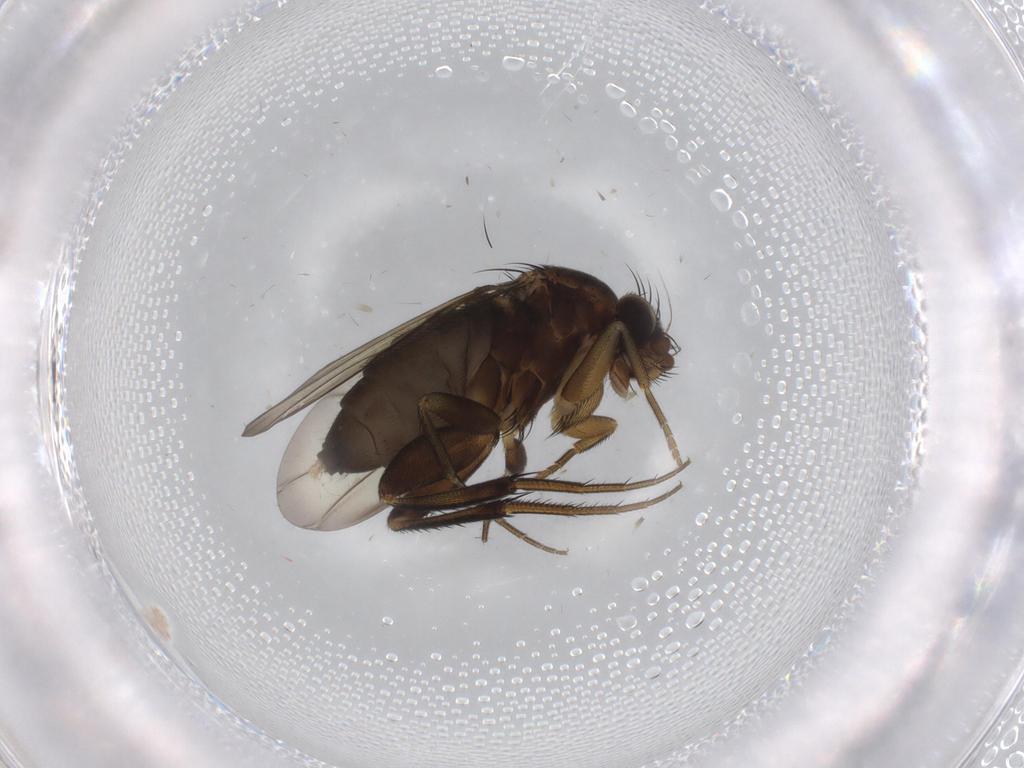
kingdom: Animalia
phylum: Arthropoda
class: Insecta
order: Diptera
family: Phoridae
